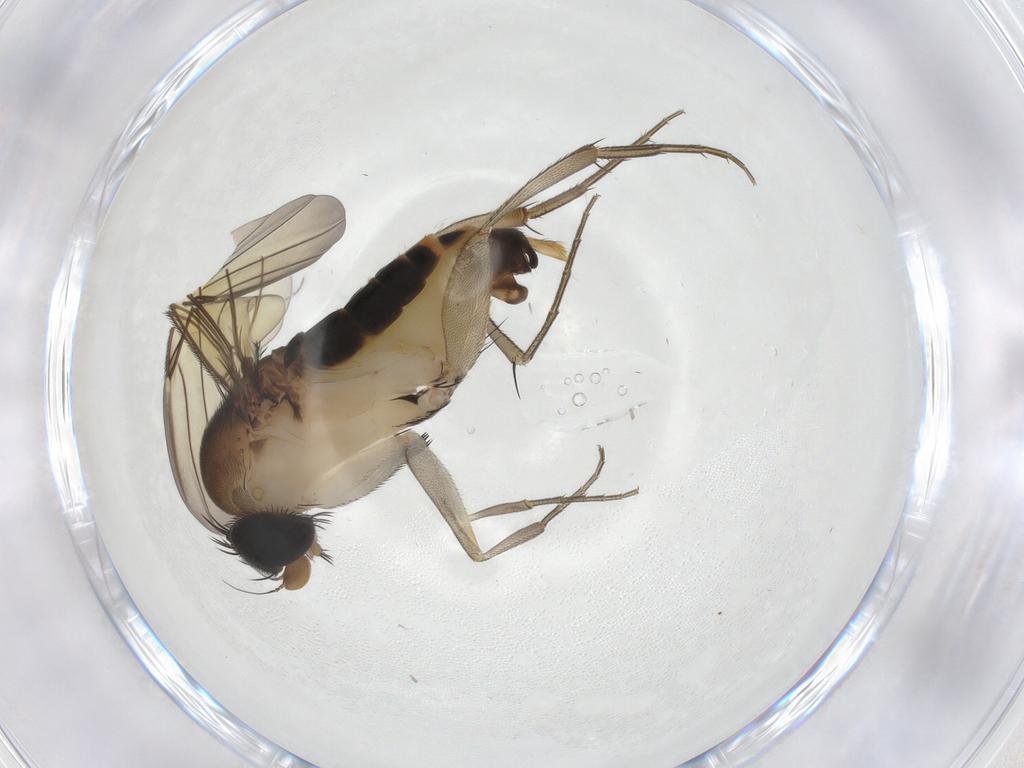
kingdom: Animalia
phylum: Arthropoda
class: Insecta
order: Diptera
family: Phoridae
